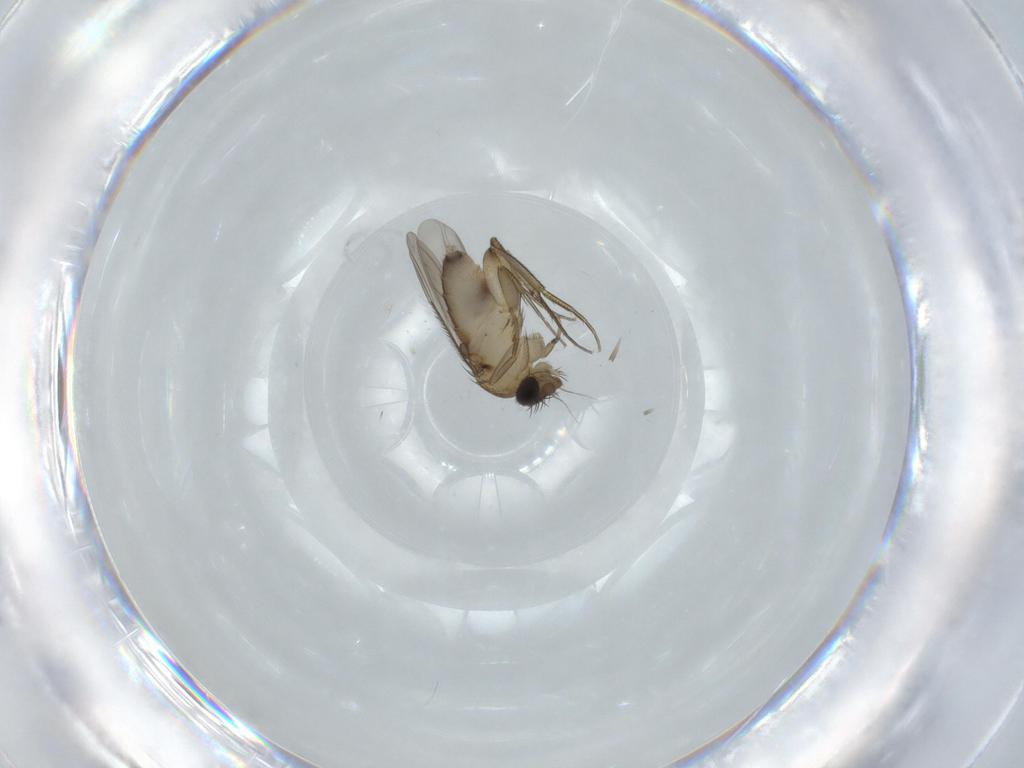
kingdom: Animalia
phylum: Arthropoda
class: Insecta
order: Diptera
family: Phoridae
